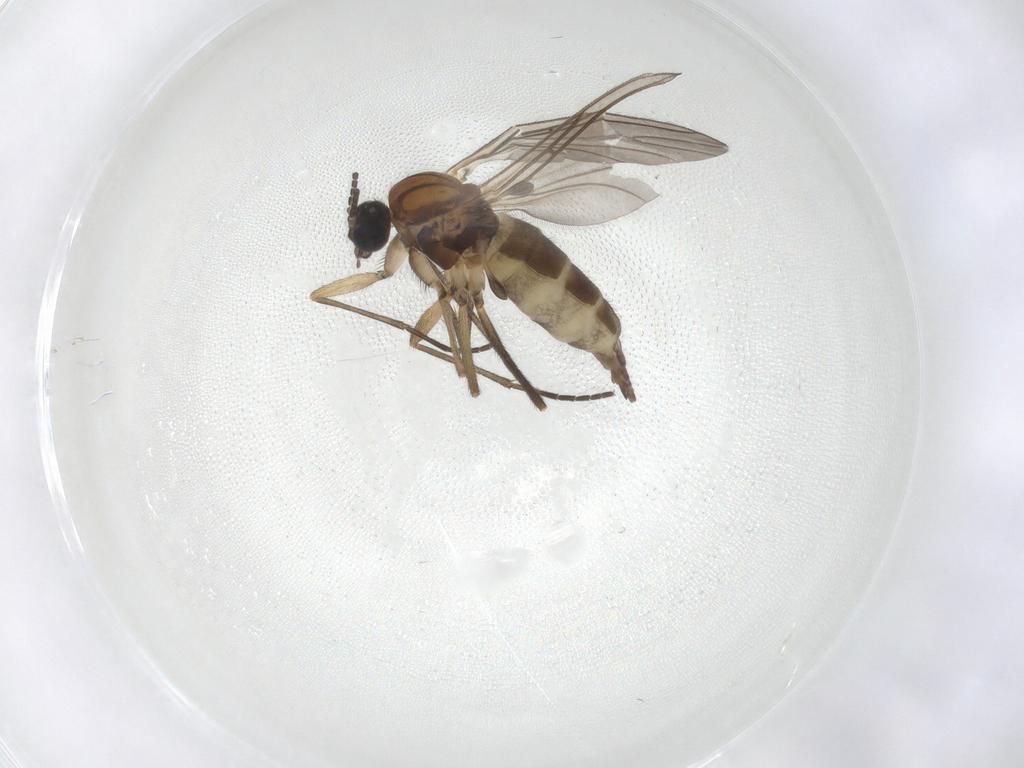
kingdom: Animalia
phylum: Arthropoda
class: Insecta
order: Diptera
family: Sciaridae
